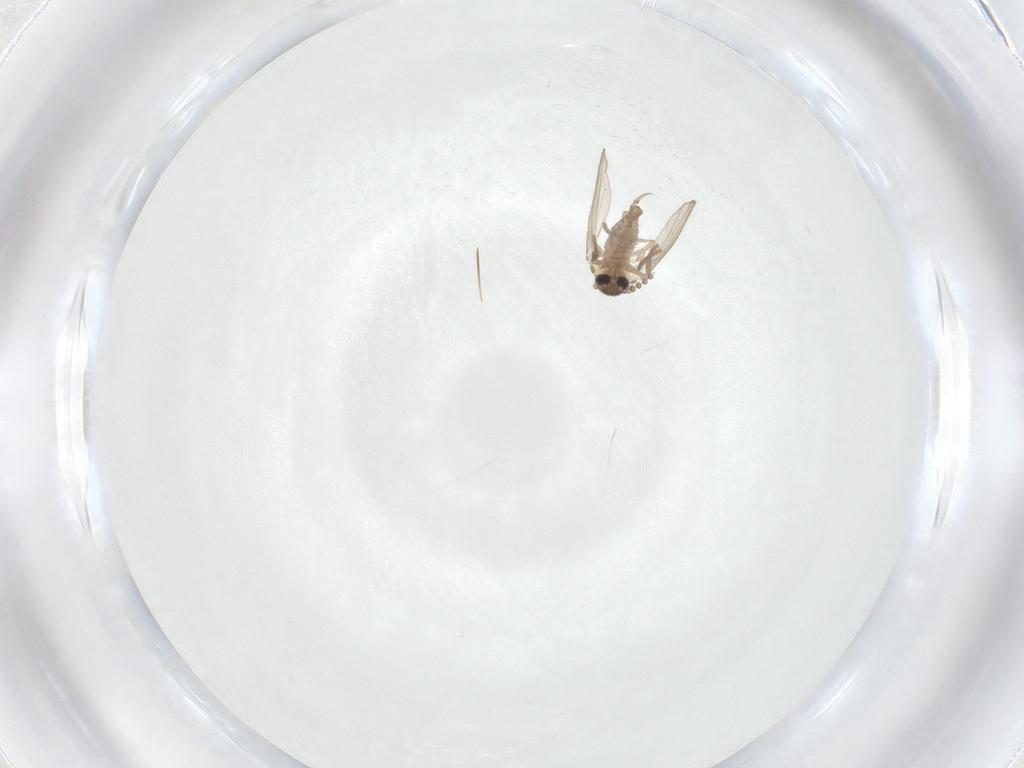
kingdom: Animalia
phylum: Arthropoda
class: Insecta
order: Diptera
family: Psychodidae
